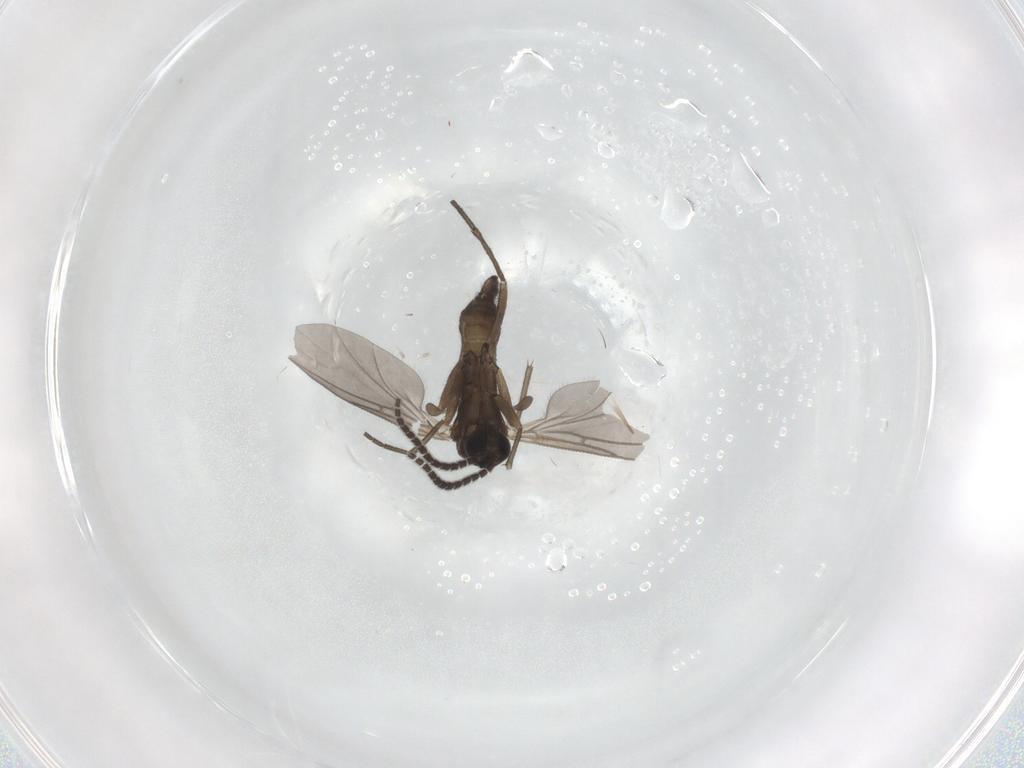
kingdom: Animalia
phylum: Arthropoda
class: Insecta
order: Diptera
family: Sciaridae
